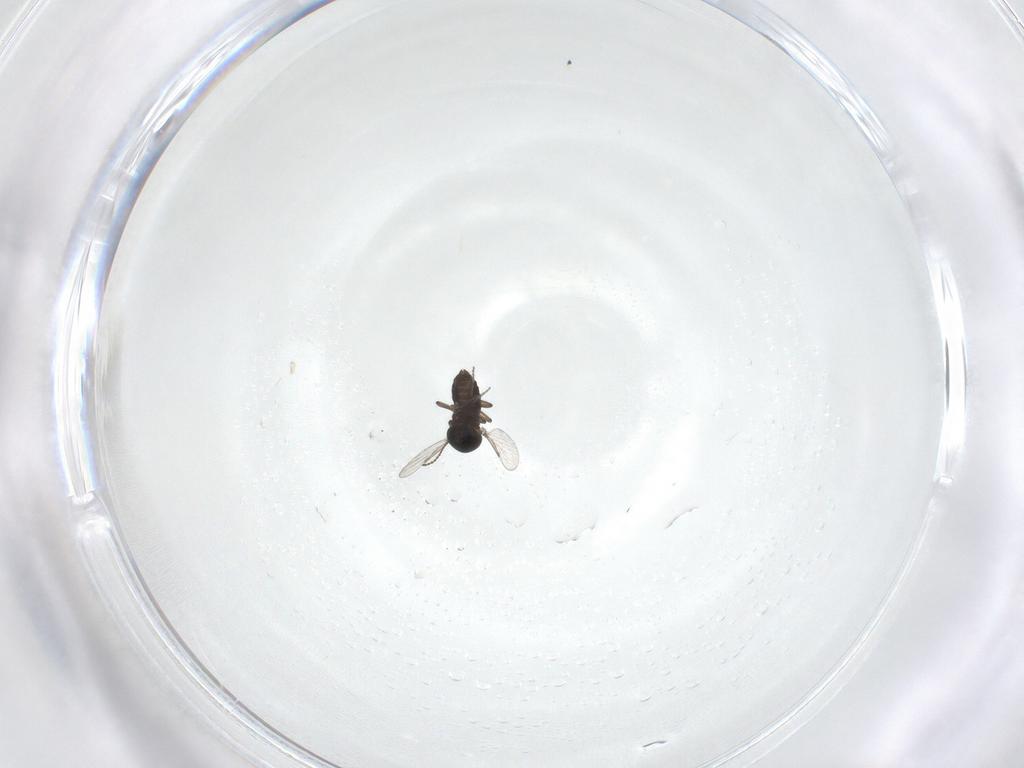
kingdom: Animalia
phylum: Arthropoda
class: Insecta
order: Diptera
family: Ceratopogonidae
